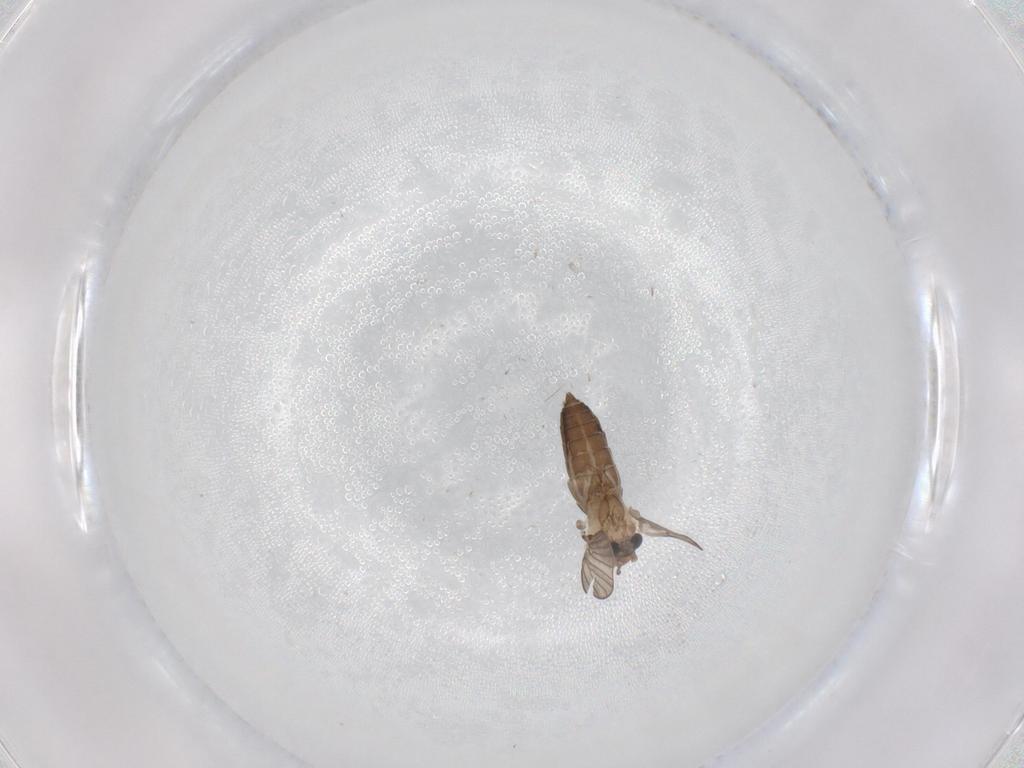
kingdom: Animalia
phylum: Arthropoda
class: Insecta
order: Diptera
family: Psychodidae
